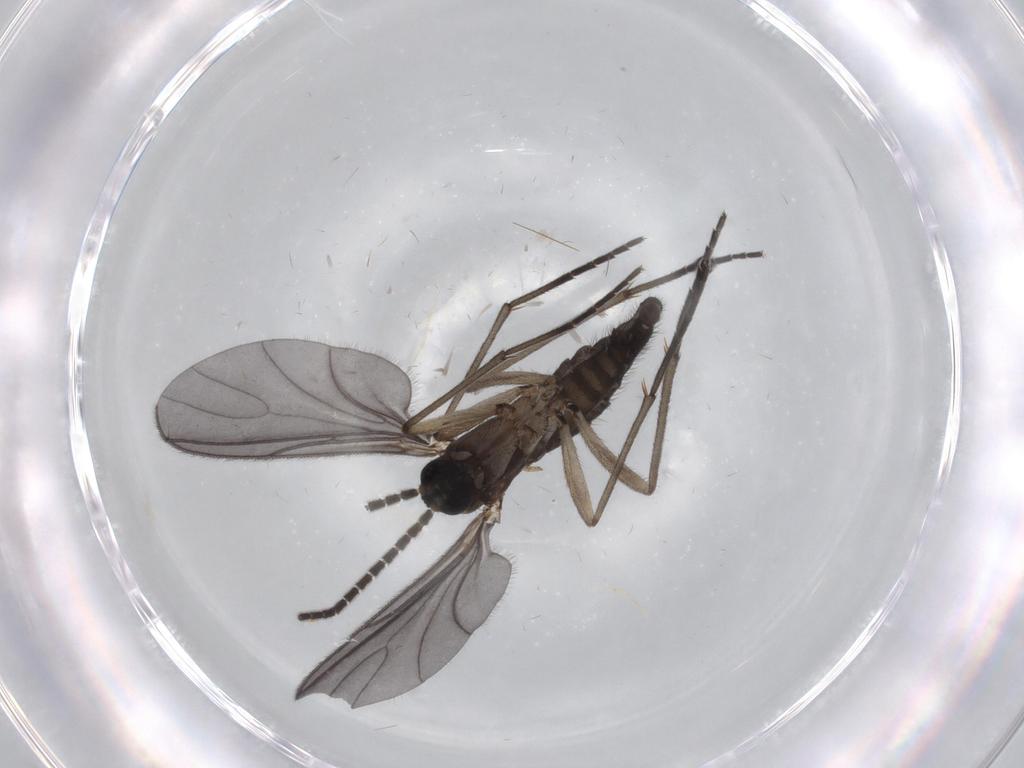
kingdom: Animalia
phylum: Arthropoda
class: Insecta
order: Diptera
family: Sciaridae
